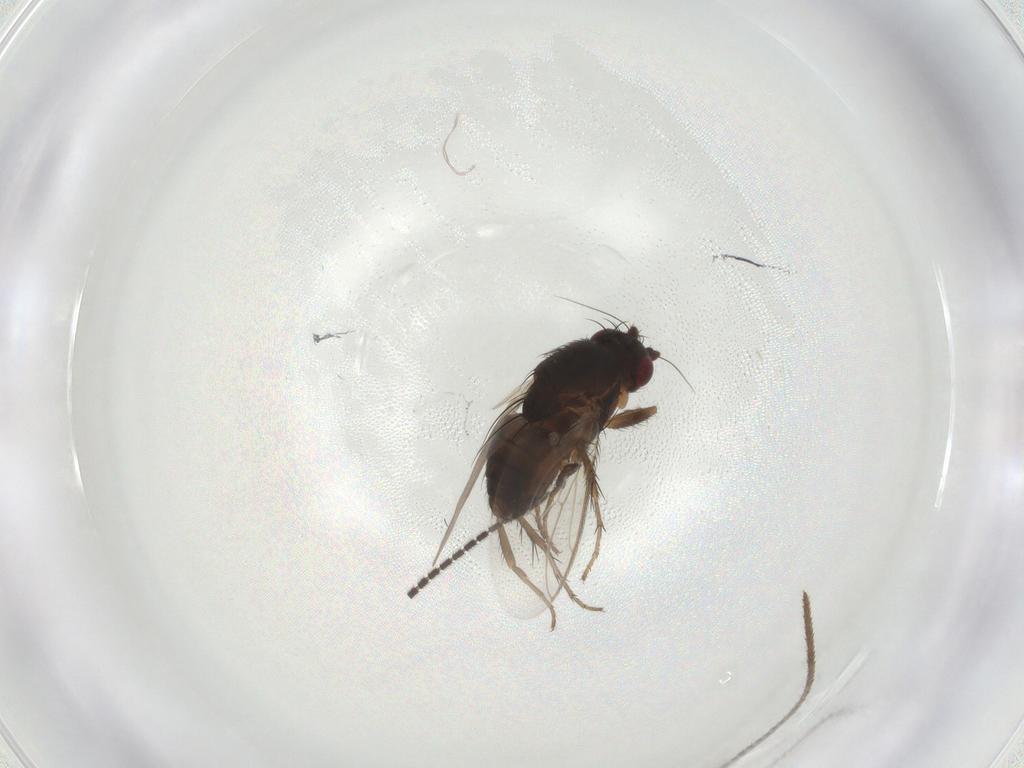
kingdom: Animalia
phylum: Arthropoda
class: Insecta
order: Diptera
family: Sphaeroceridae
